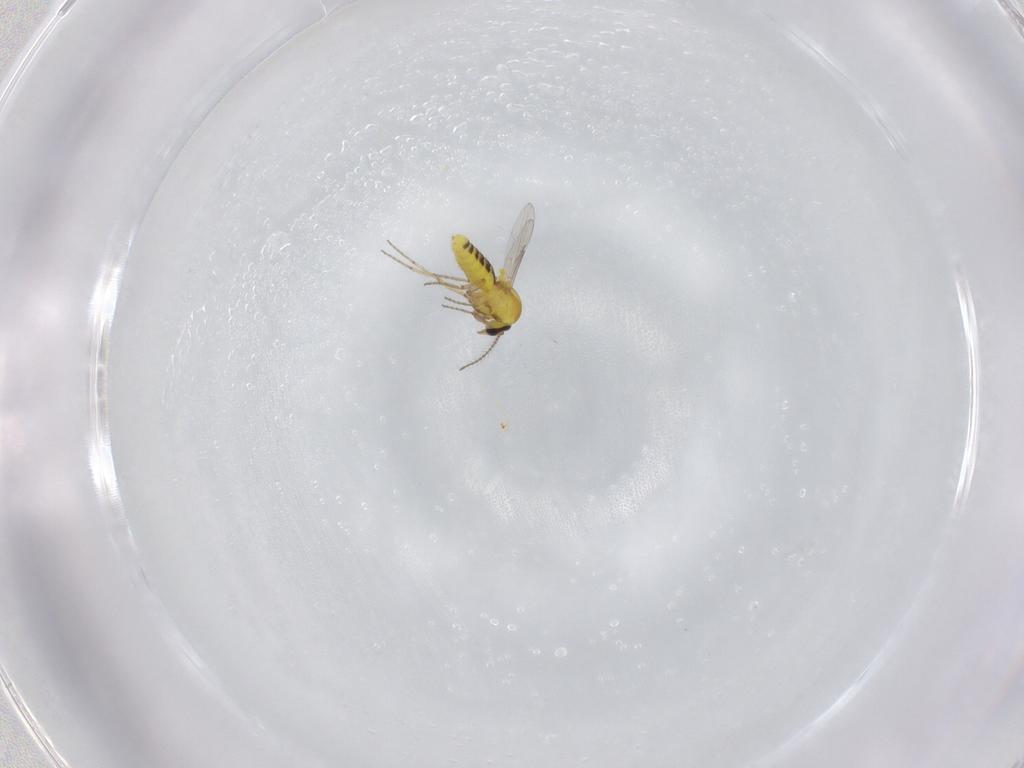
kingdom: Animalia
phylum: Arthropoda
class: Insecta
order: Diptera
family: Ceratopogonidae
